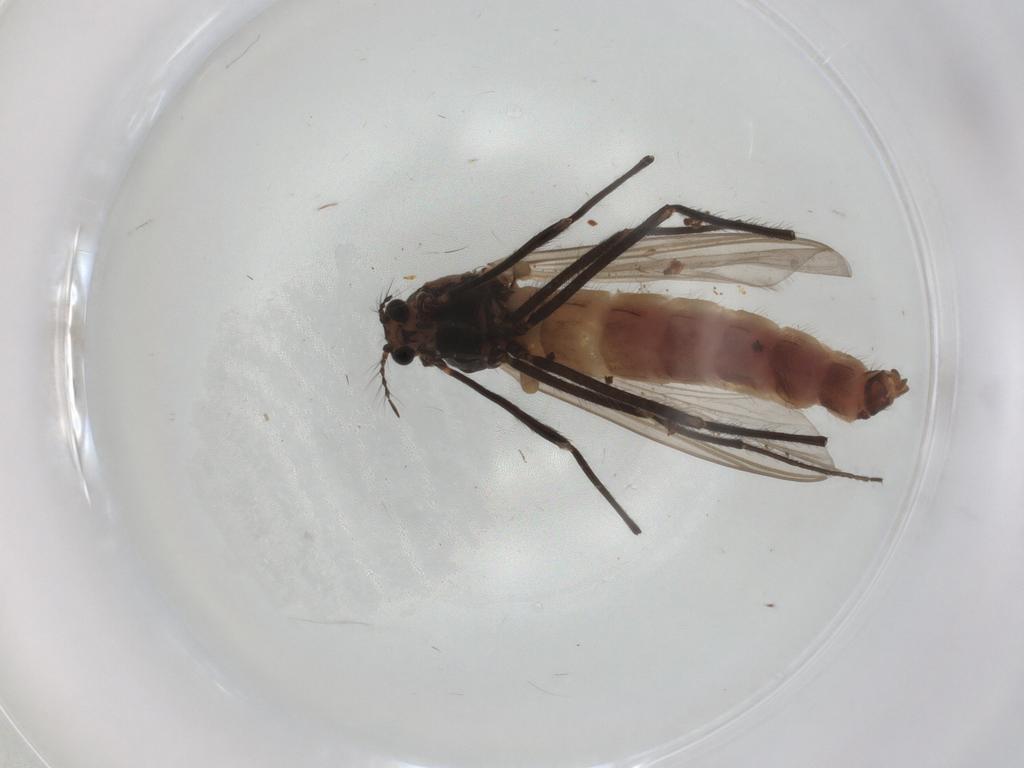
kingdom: Animalia
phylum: Arthropoda
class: Insecta
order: Diptera
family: Chironomidae
